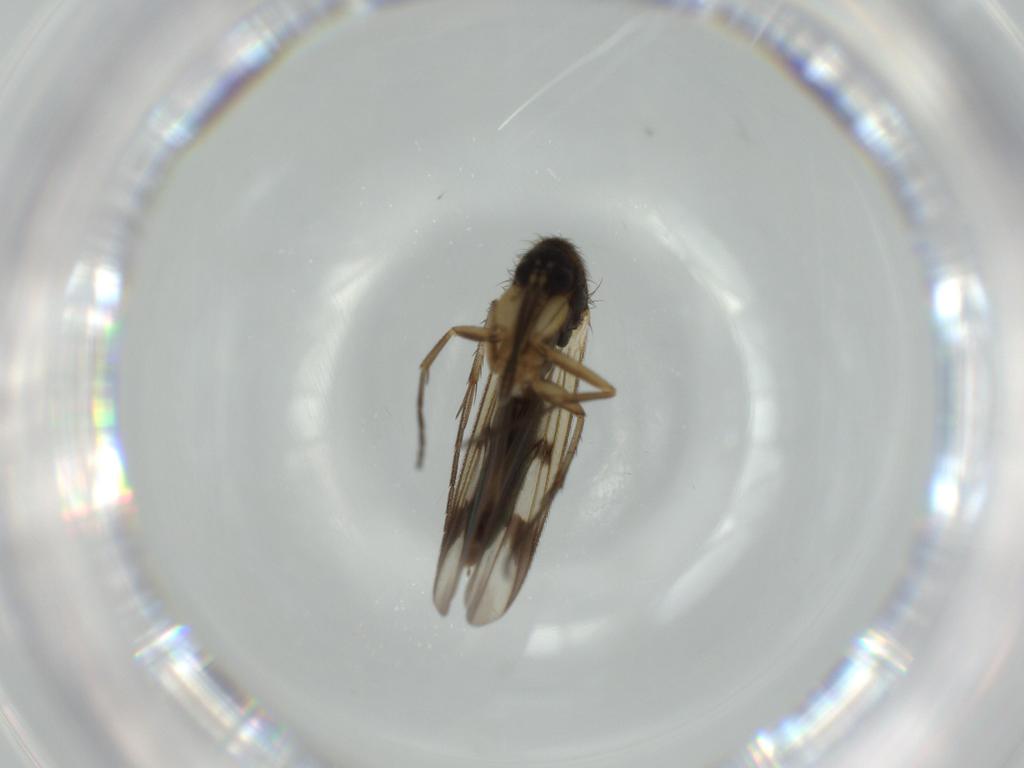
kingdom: Animalia
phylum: Arthropoda
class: Insecta
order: Diptera
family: Mycetophilidae
